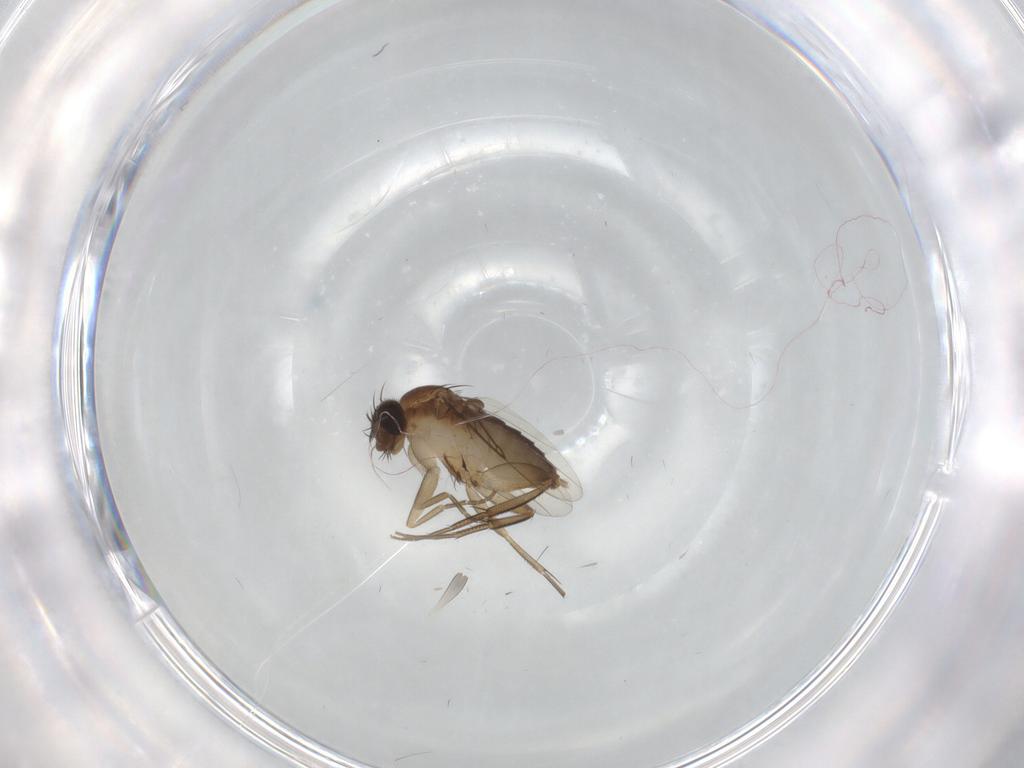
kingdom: Animalia
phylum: Arthropoda
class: Insecta
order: Diptera
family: Phoridae
